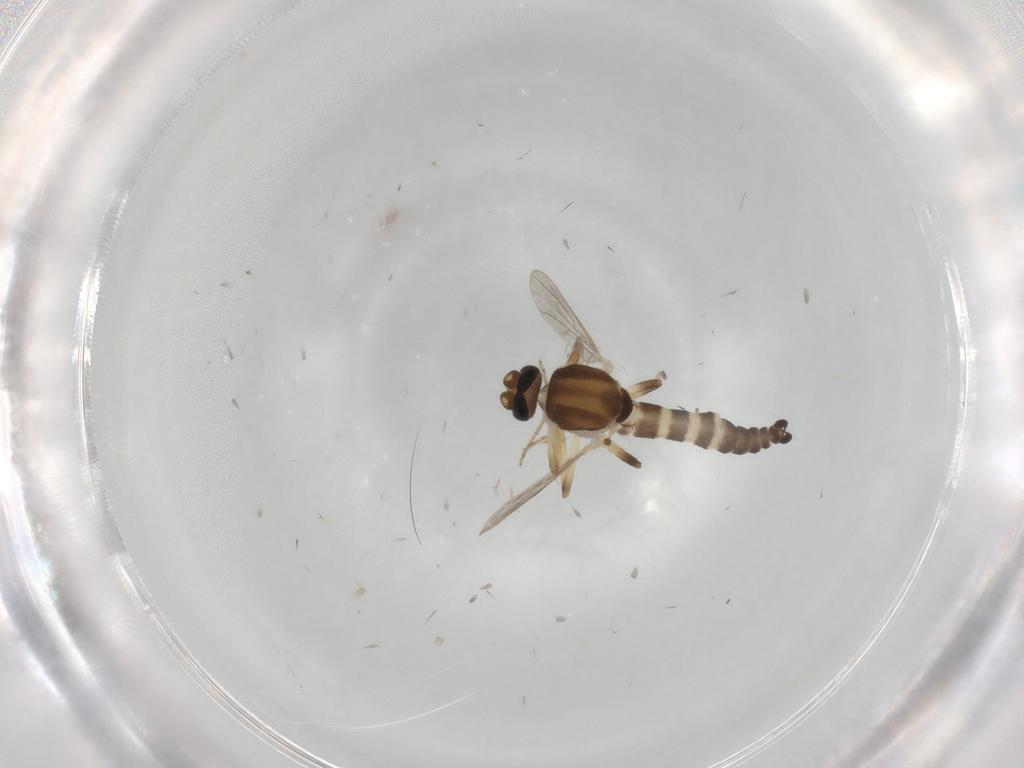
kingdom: Animalia
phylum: Arthropoda
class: Insecta
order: Diptera
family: Ceratopogonidae
